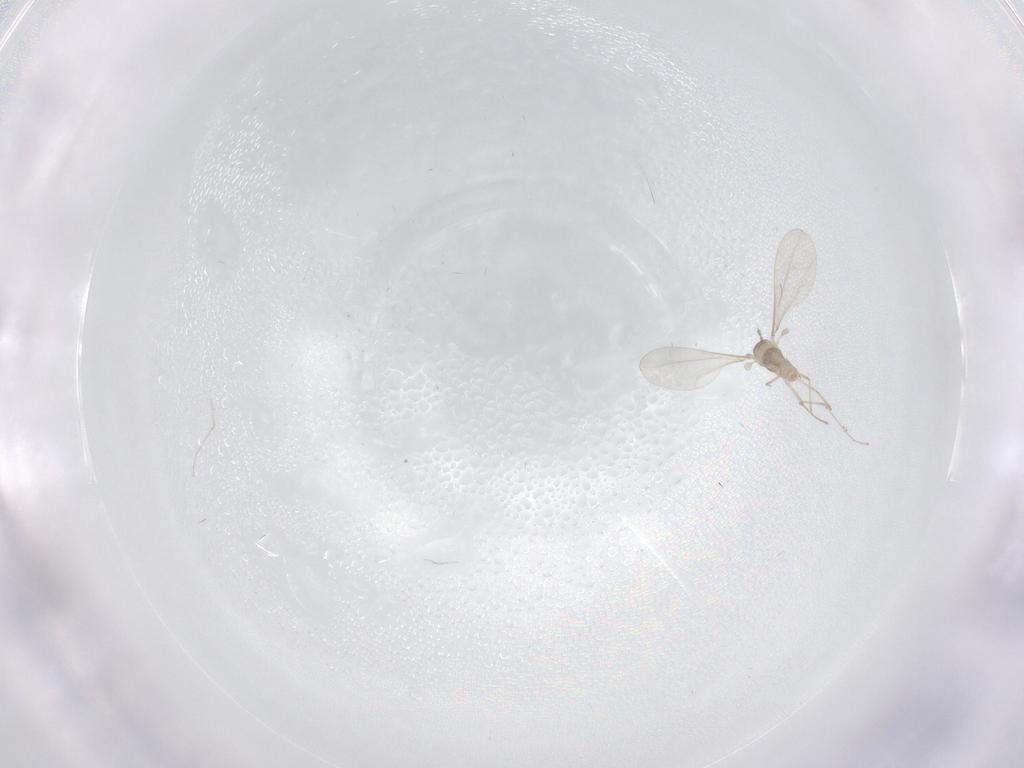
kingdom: Animalia
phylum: Arthropoda
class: Insecta
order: Diptera
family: Cecidomyiidae
